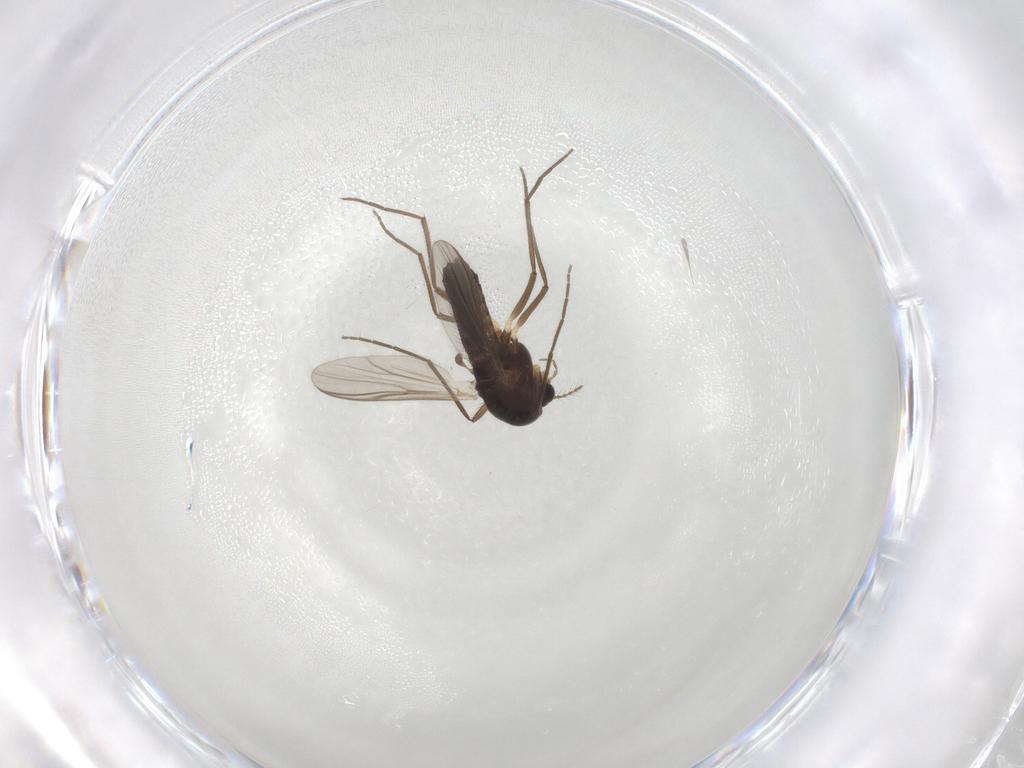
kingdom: Animalia
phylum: Arthropoda
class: Insecta
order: Diptera
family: Chironomidae
